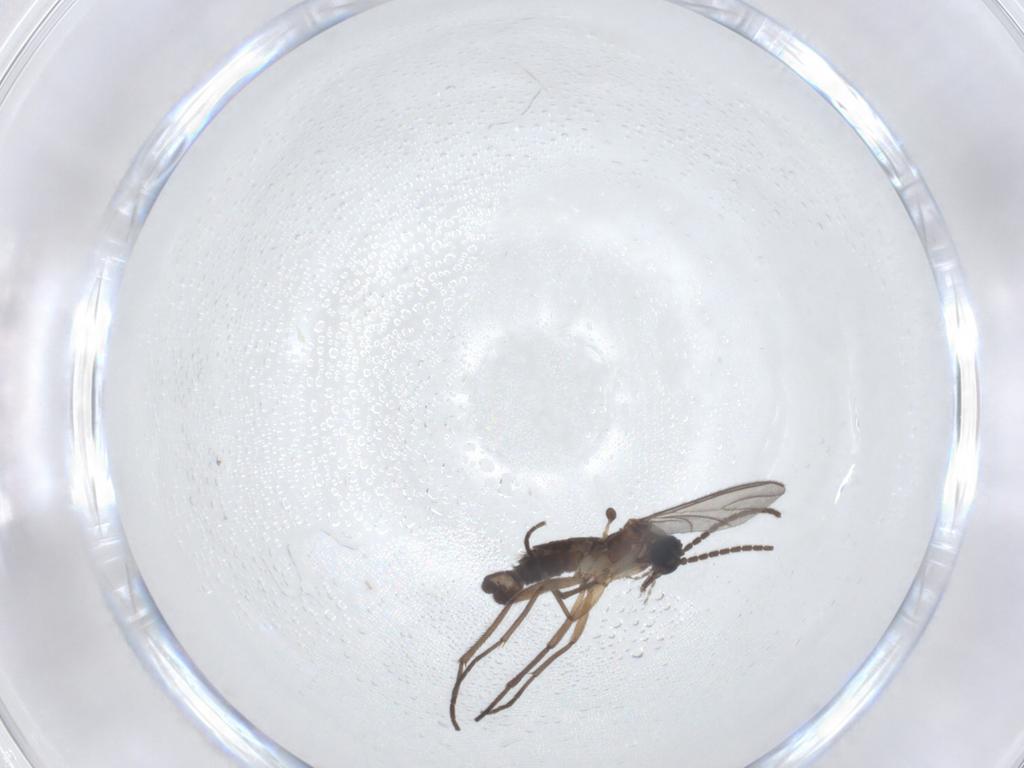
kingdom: Animalia
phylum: Arthropoda
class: Insecta
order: Diptera
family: Sciaridae
